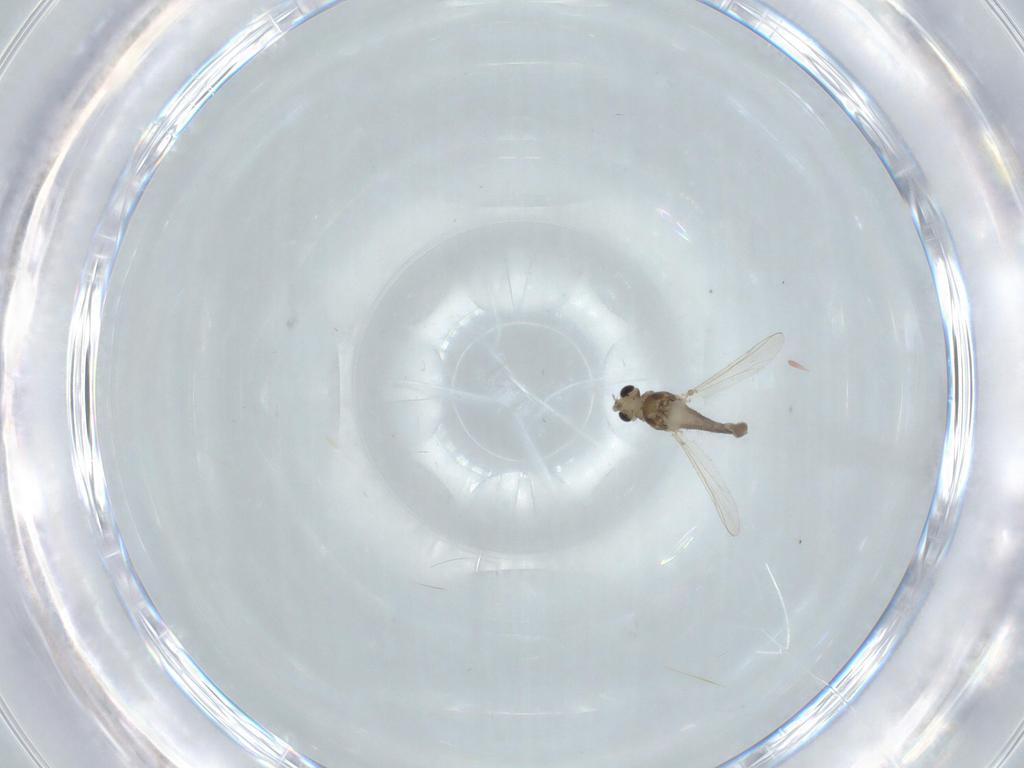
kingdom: Animalia
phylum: Arthropoda
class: Insecta
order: Diptera
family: Chironomidae
